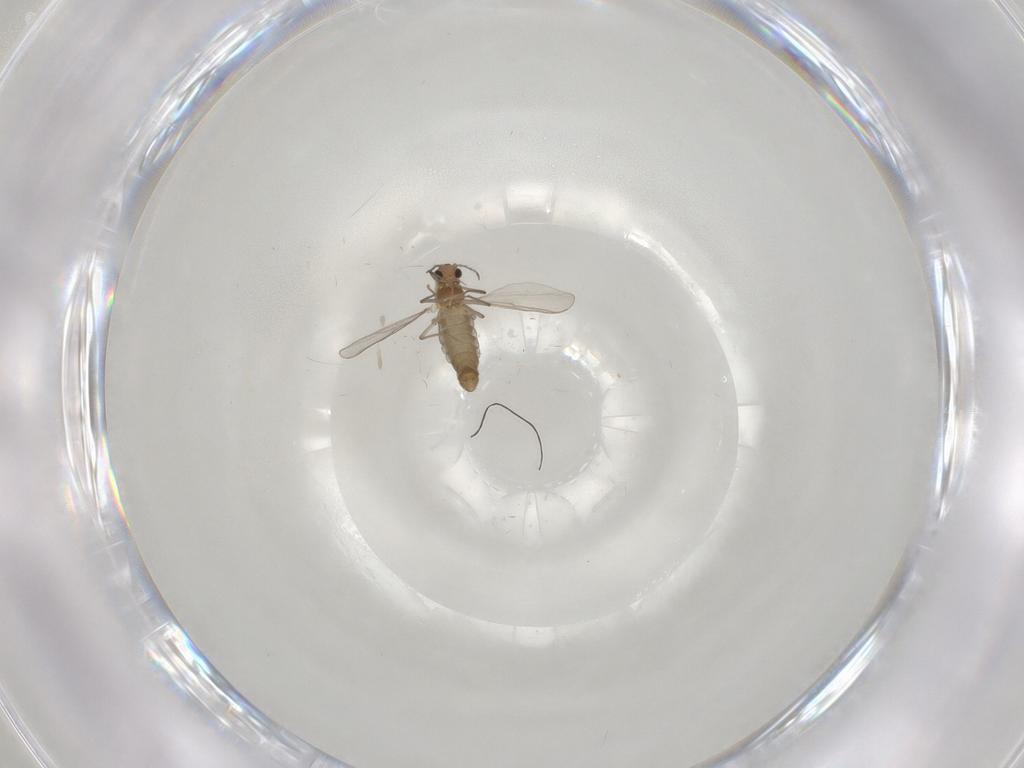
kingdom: Animalia
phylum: Arthropoda
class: Insecta
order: Diptera
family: Chironomidae
